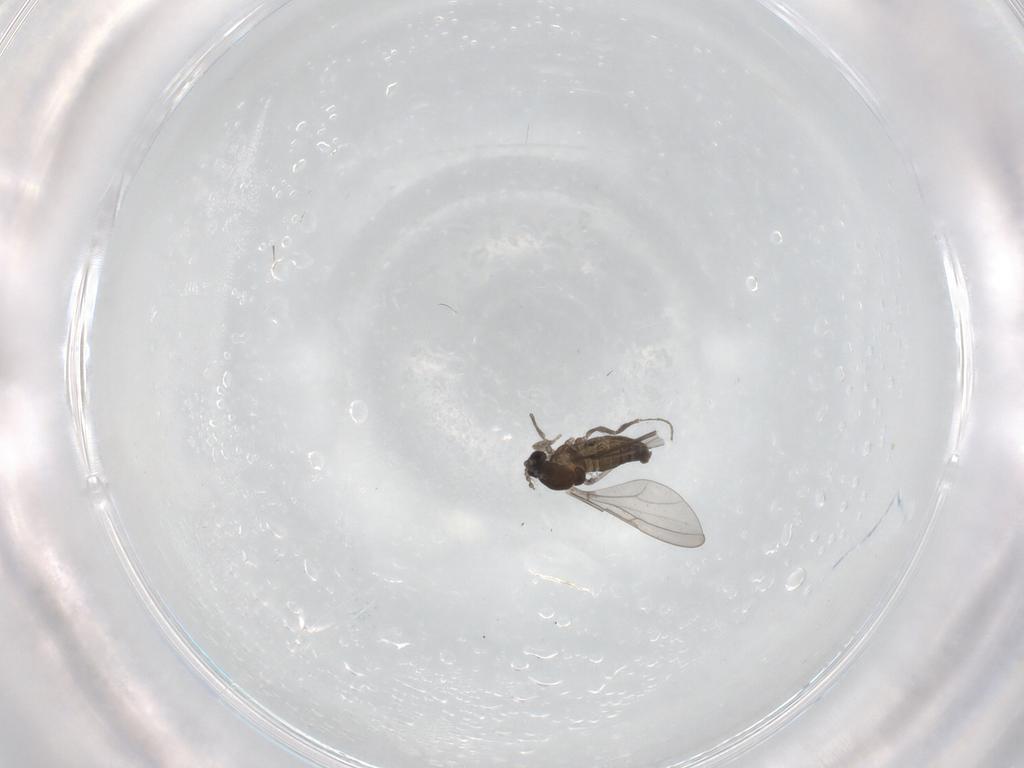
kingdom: Animalia
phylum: Arthropoda
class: Insecta
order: Diptera
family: Cecidomyiidae
